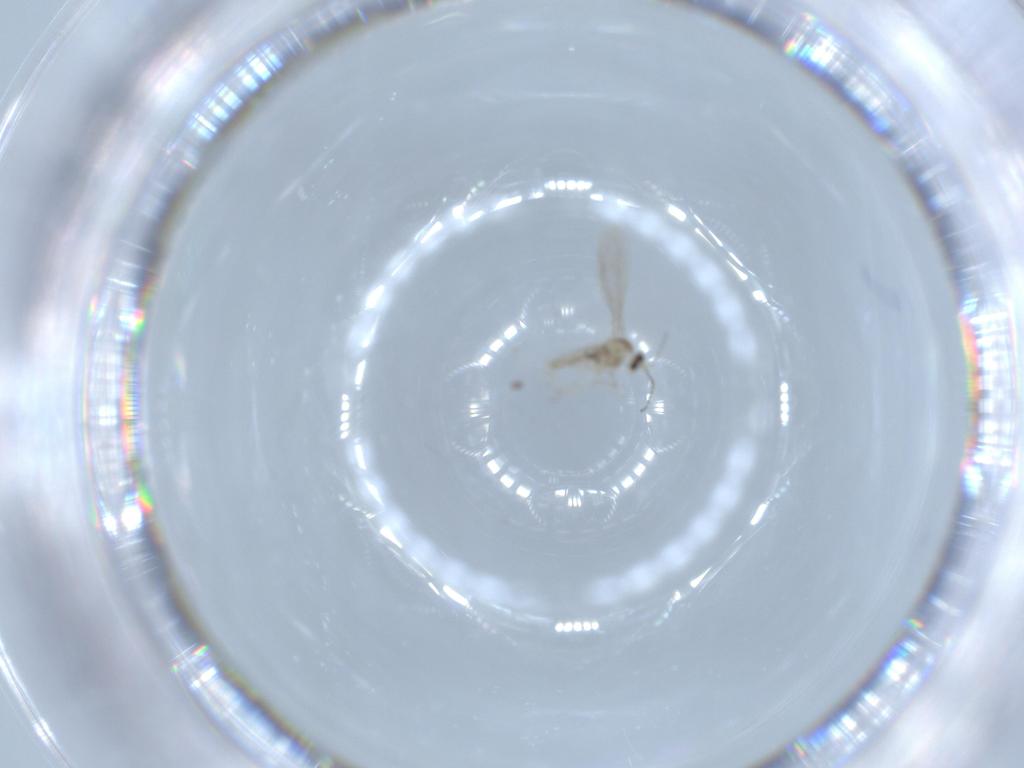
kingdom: Animalia
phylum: Arthropoda
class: Insecta
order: Diptera
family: Cecidomyiidae
